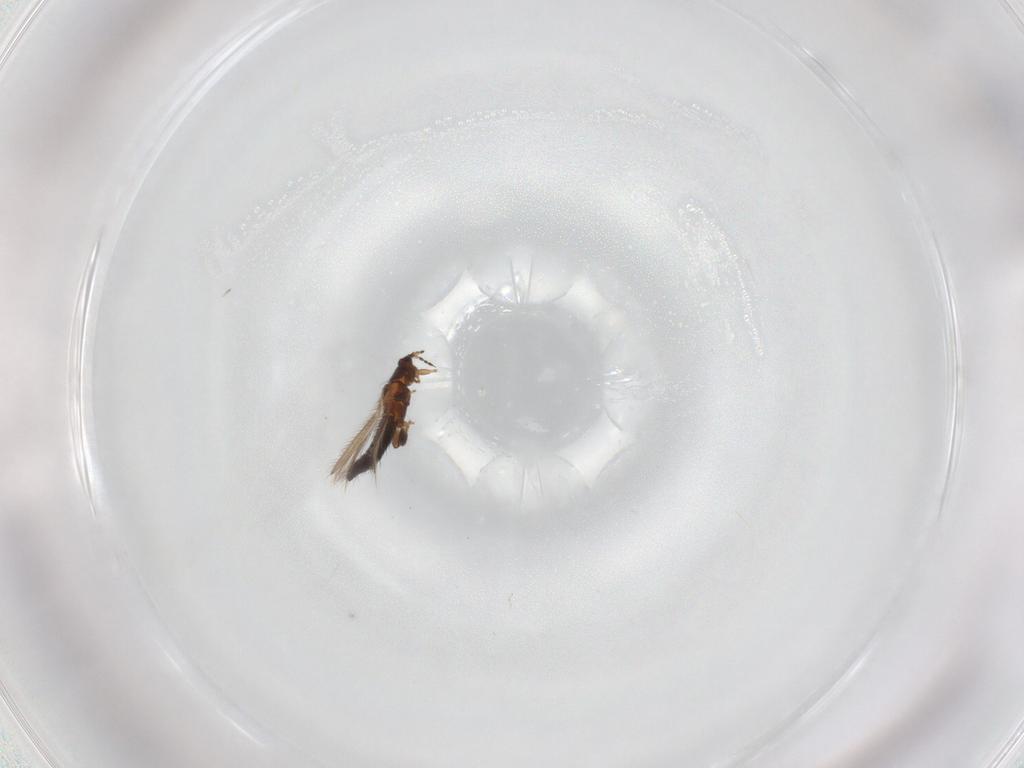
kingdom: Animalia
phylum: Arthropoda
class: Insecta
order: Thysanoptera
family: Thripidae
